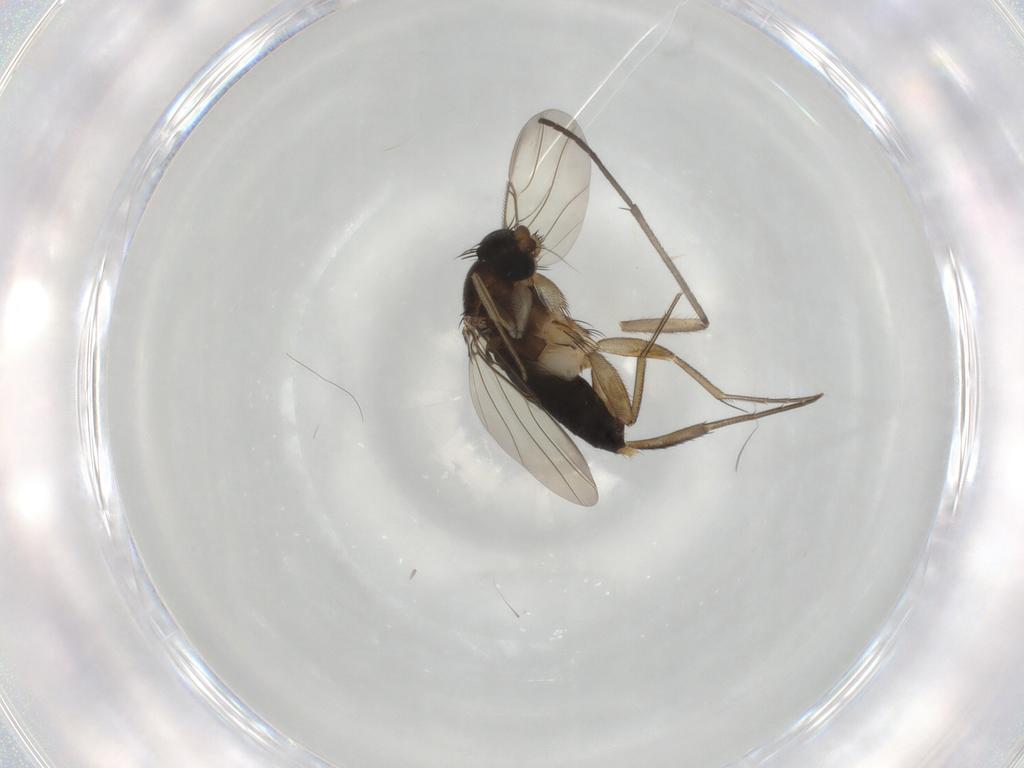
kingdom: Animalia
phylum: Arthropoda
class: Insecta
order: Diptera
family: Phoridae
